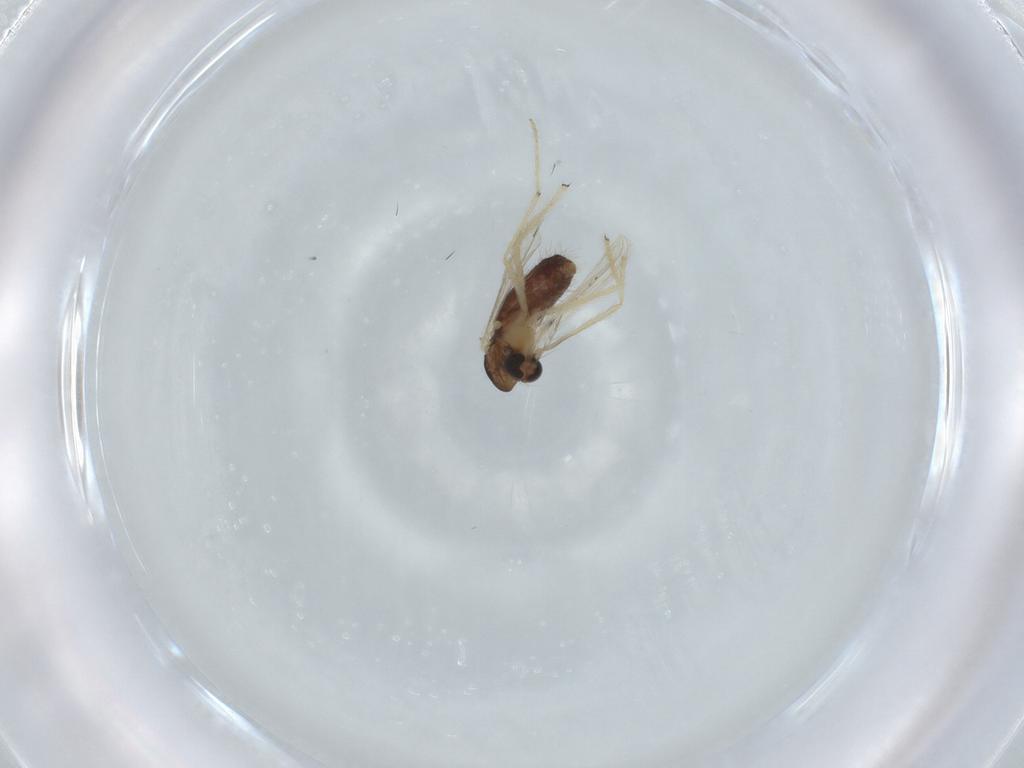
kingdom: Animalia
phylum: Arthropoda
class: Insecta
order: Diptera
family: Chironomidae
